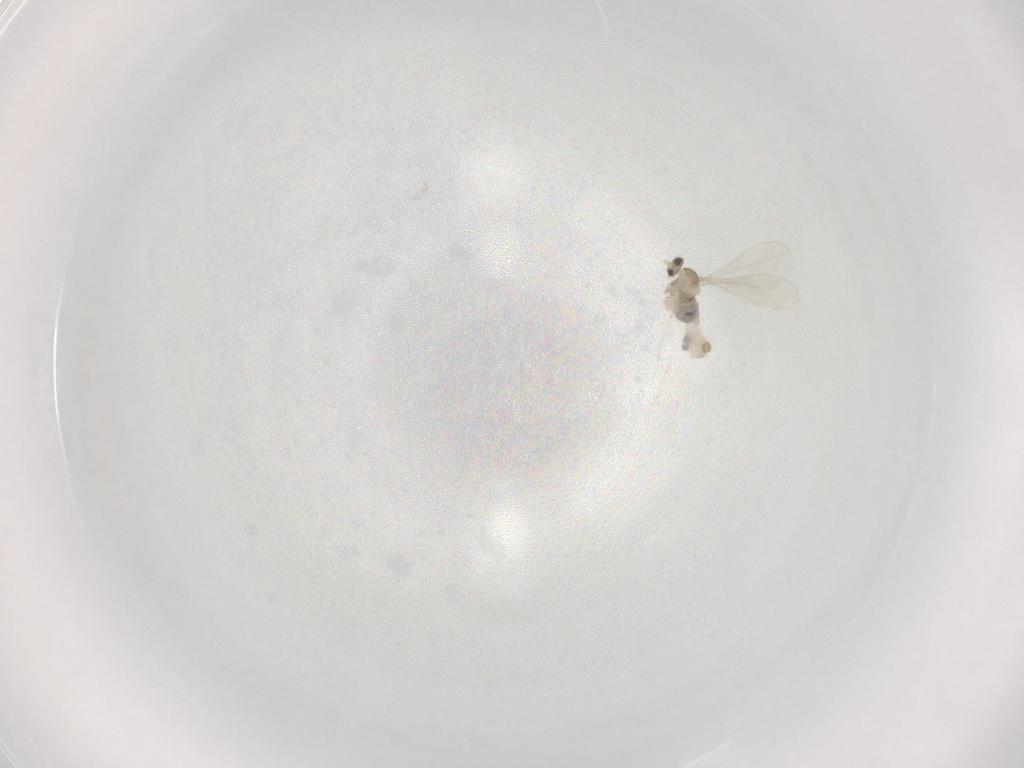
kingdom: Animalia
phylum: Arthropoda
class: Insecta
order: Diptera
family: Cecidomyiidae
